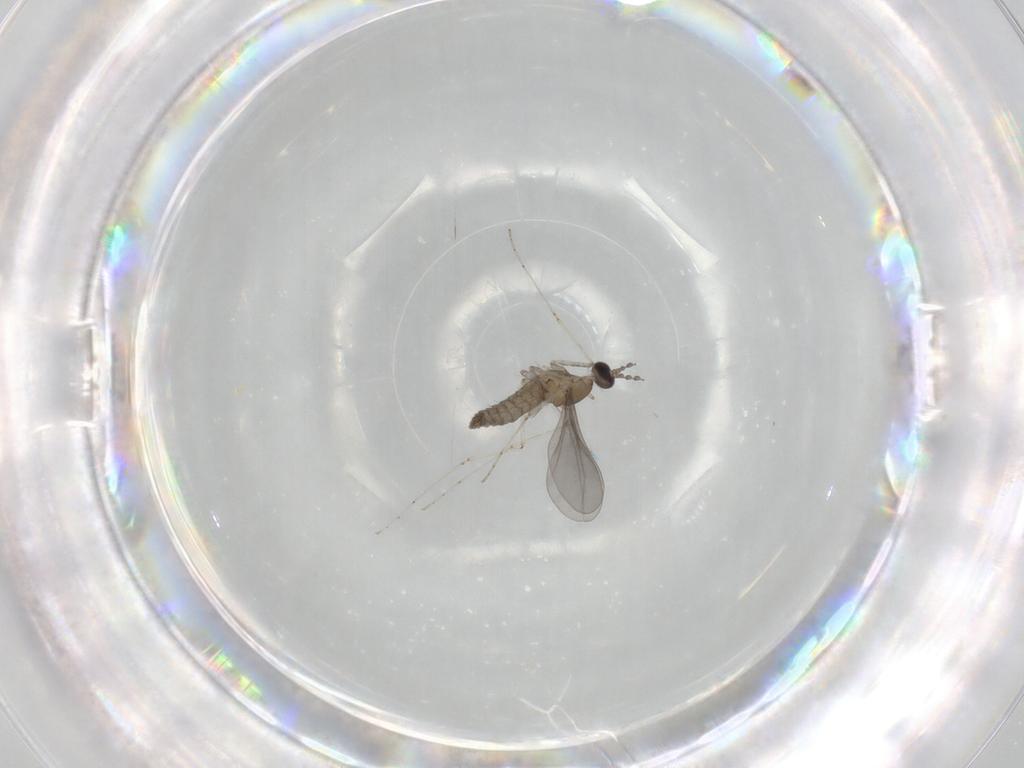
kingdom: Animalia
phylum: Arthropoda
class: Insecta
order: Diptera
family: Cecidomyiidae
